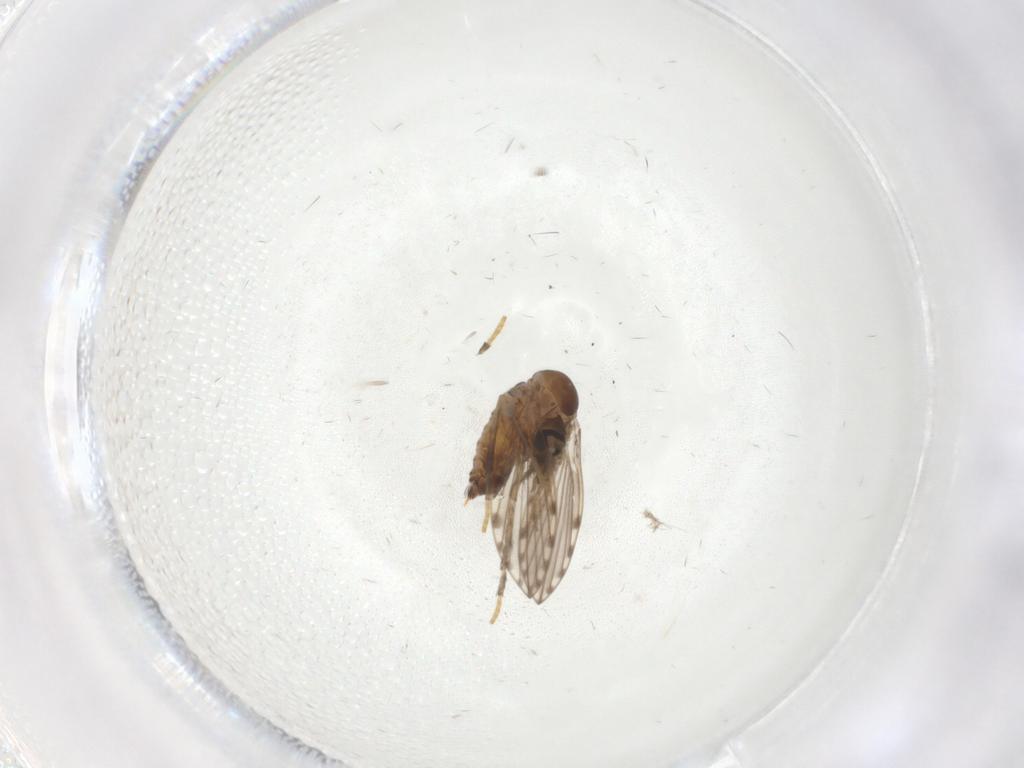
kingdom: Animalia
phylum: Arthropoda
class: Insecta
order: Diptera
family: Psychodidae
